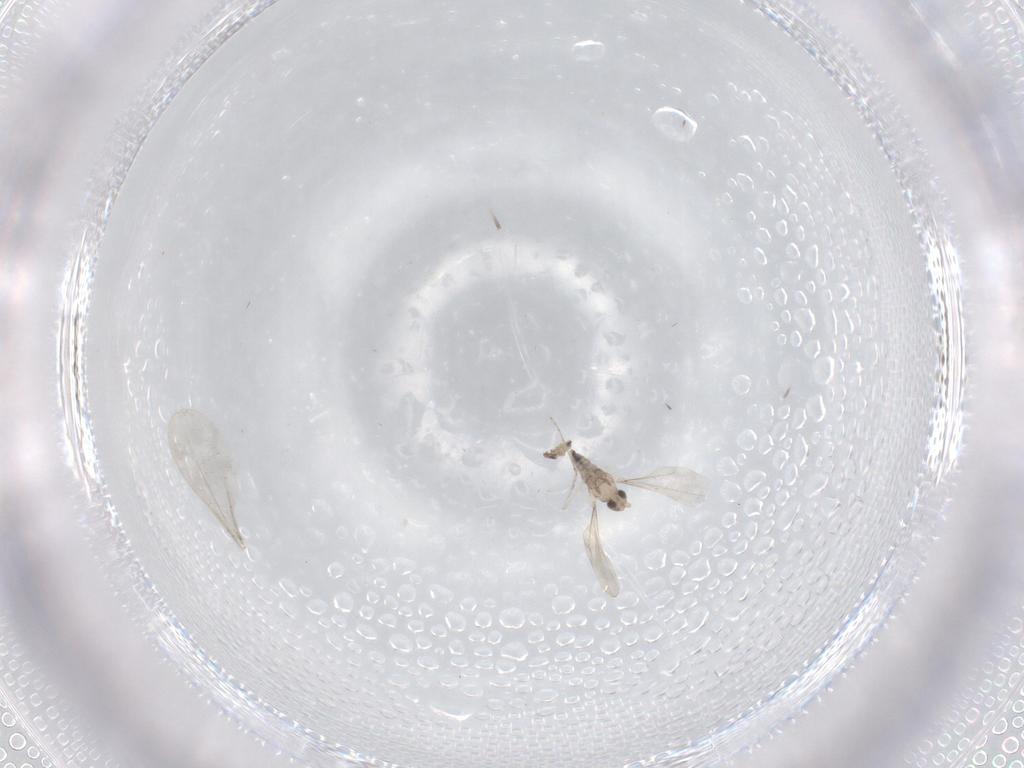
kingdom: Animalia
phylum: Arthropoda
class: Insecta
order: Diptera
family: Cecidomyiidae
